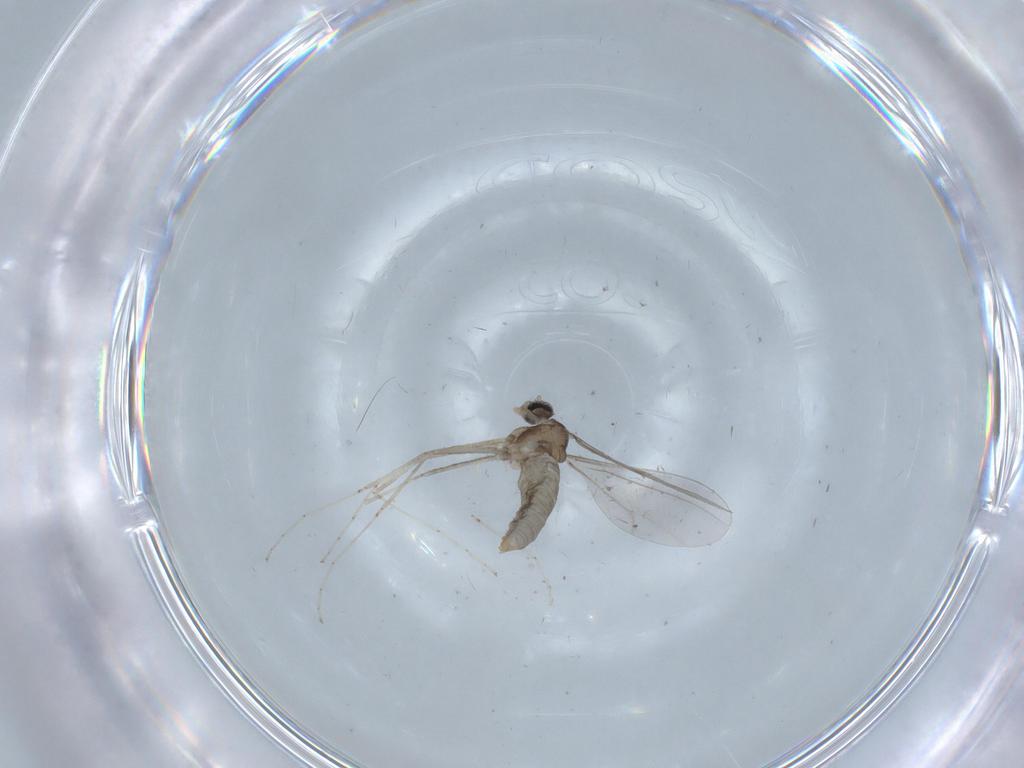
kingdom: Animalia
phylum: Arthropoda
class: Insecta
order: Diptera
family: Cecidomyiidae
